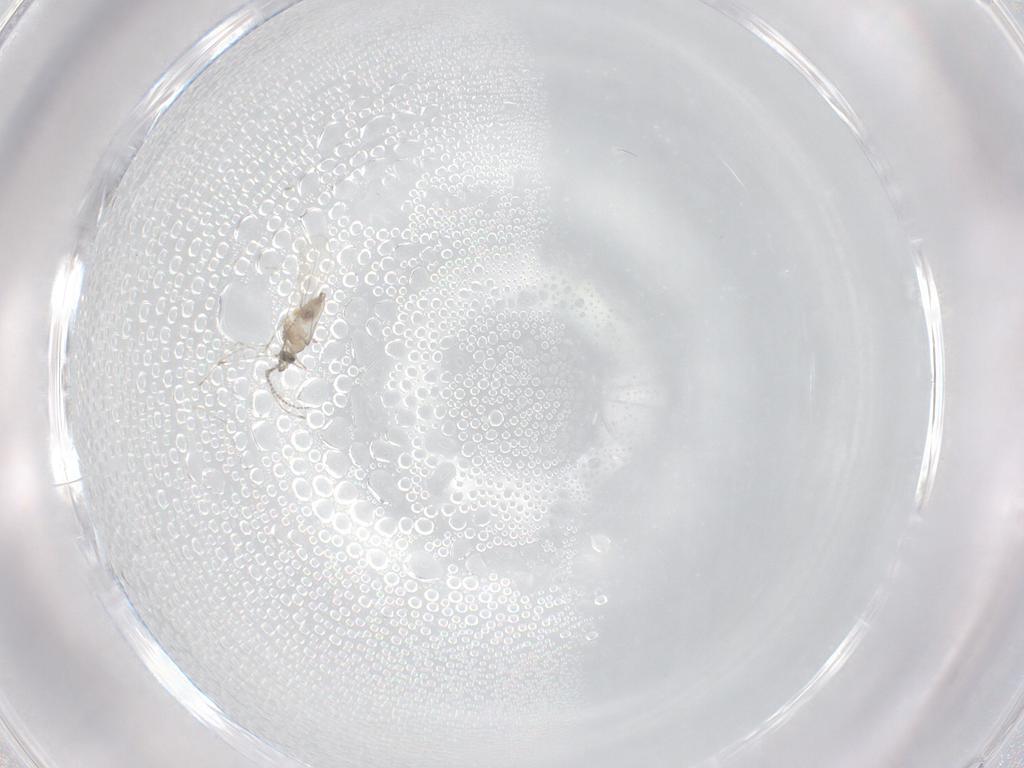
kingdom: Animalia
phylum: Arthropoda
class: Insecta
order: Diptera
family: Cecidomyiidae
